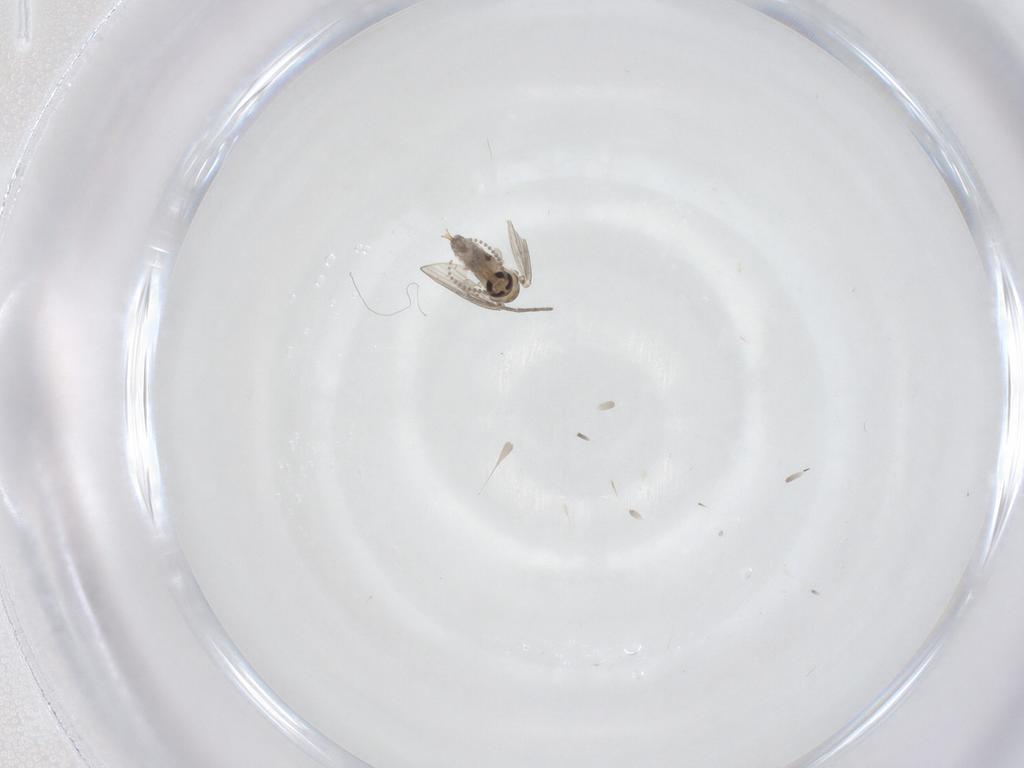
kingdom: Animalia
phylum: Arthropoda
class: Insecta
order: Diptera
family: Psychodidae
